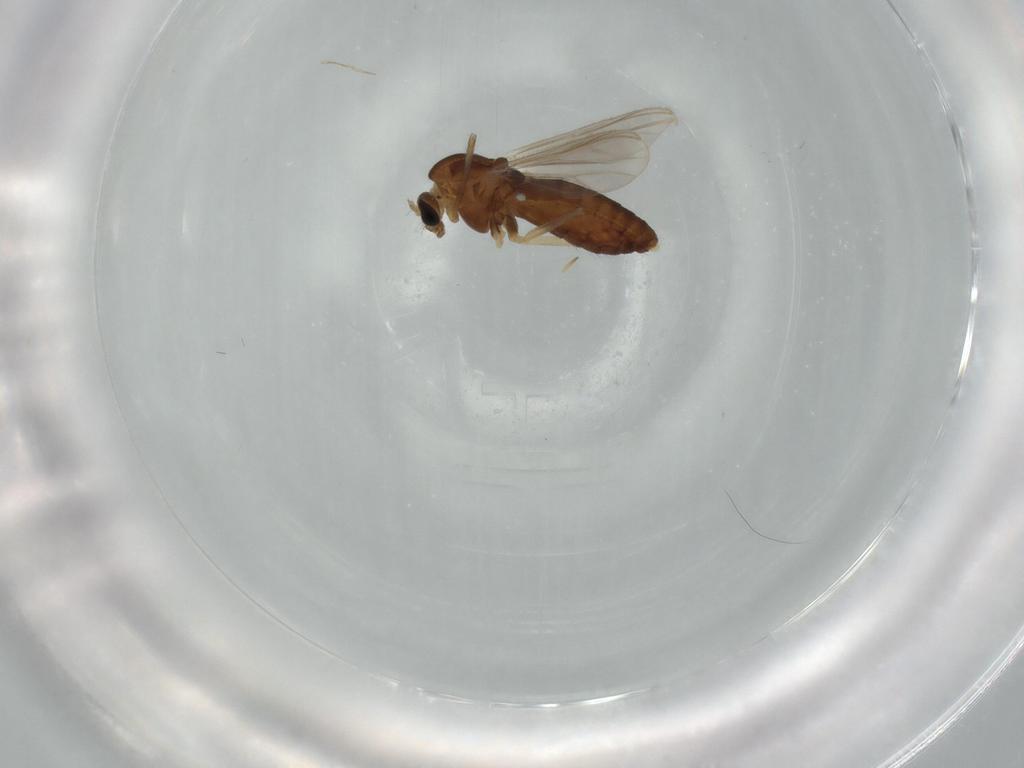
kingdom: Animalia
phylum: Arthropoda
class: Insecta
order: Diptera
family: Chironomidae
